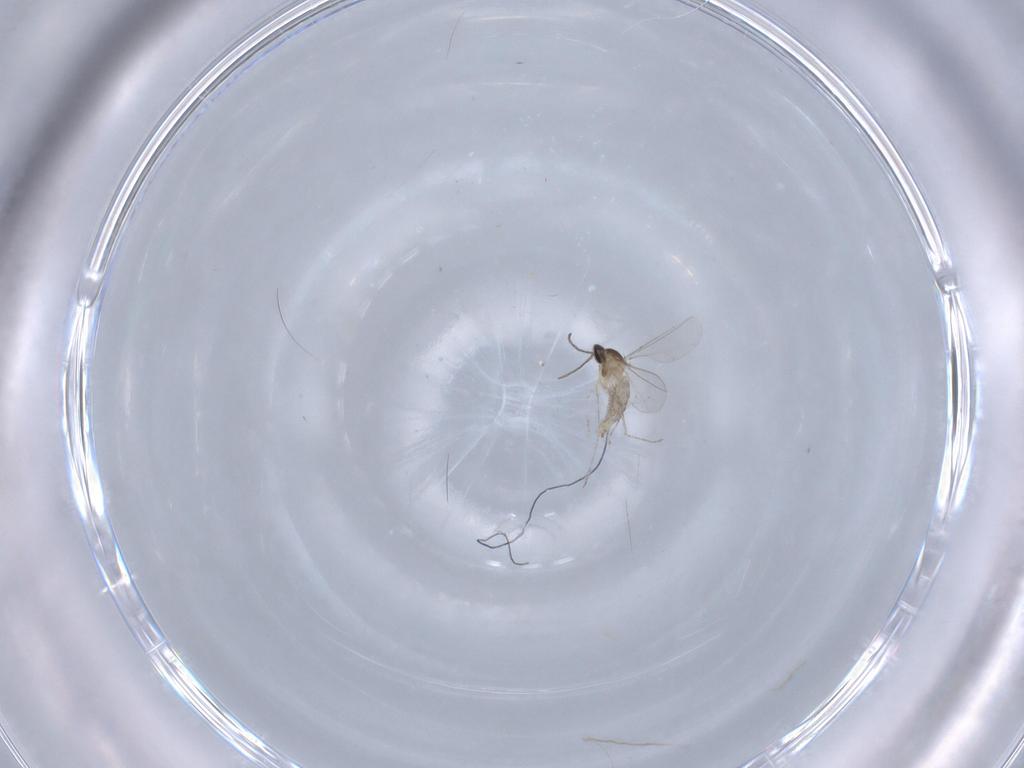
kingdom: Animalia
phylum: Arthropoda
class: Insecta
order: Diptera
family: Cecidomyiidae
